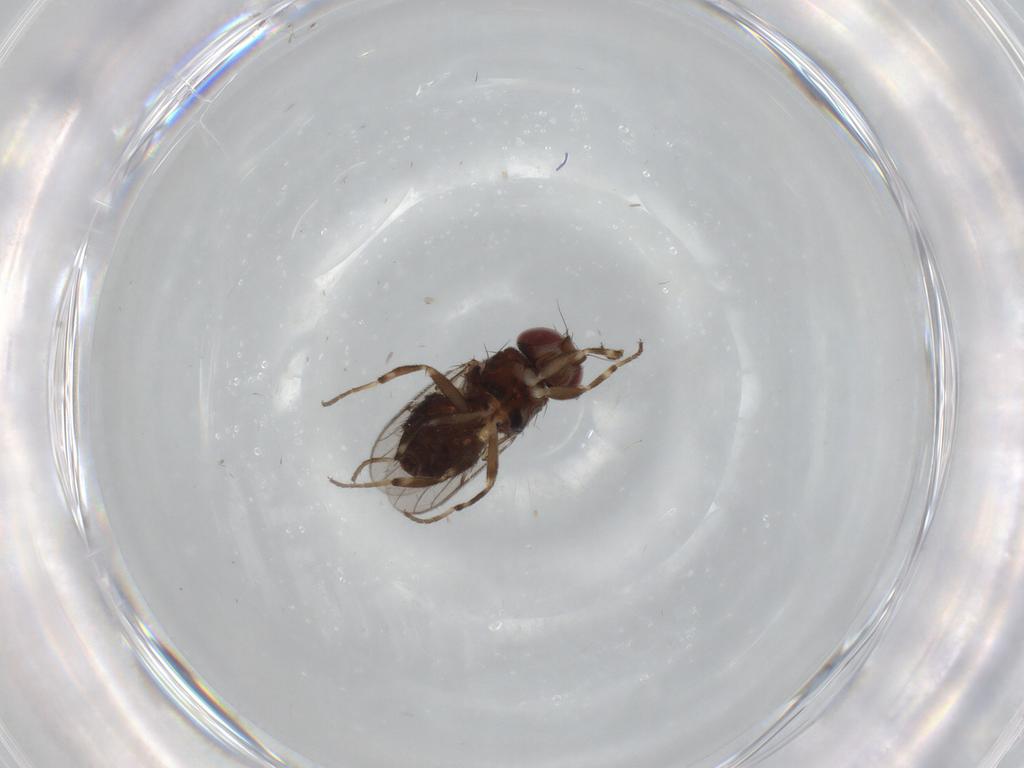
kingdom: Animalia
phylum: Arthropoda
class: Insecta
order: Diptera
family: Chloropidae
